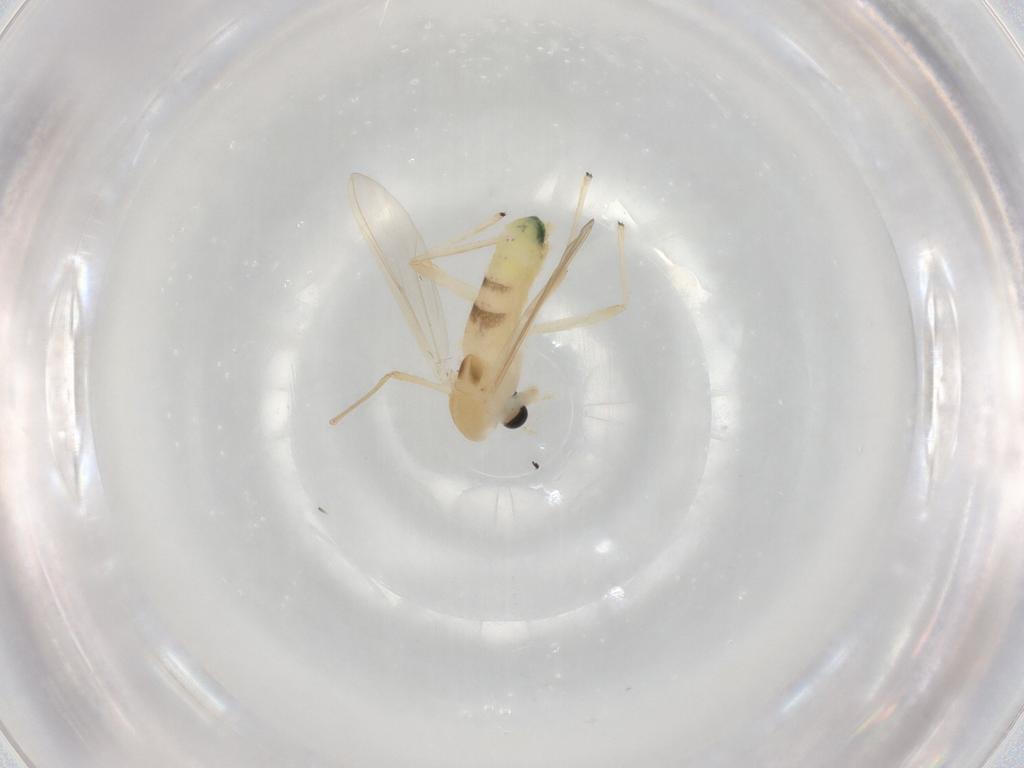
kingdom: Animalia
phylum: Arthropoda
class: Insecta
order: Diptera
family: Chironomidae
